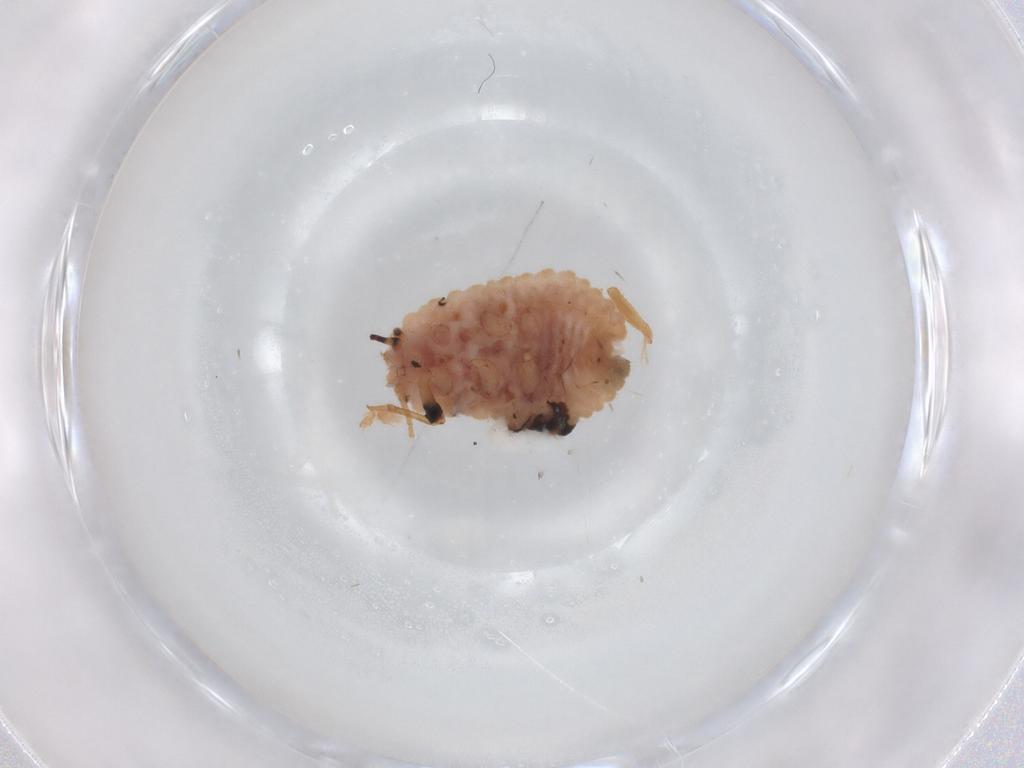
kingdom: Animalia
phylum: Arthropoda
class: Insecta
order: Hemiptera
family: Coccoidea_incertae_sedis
